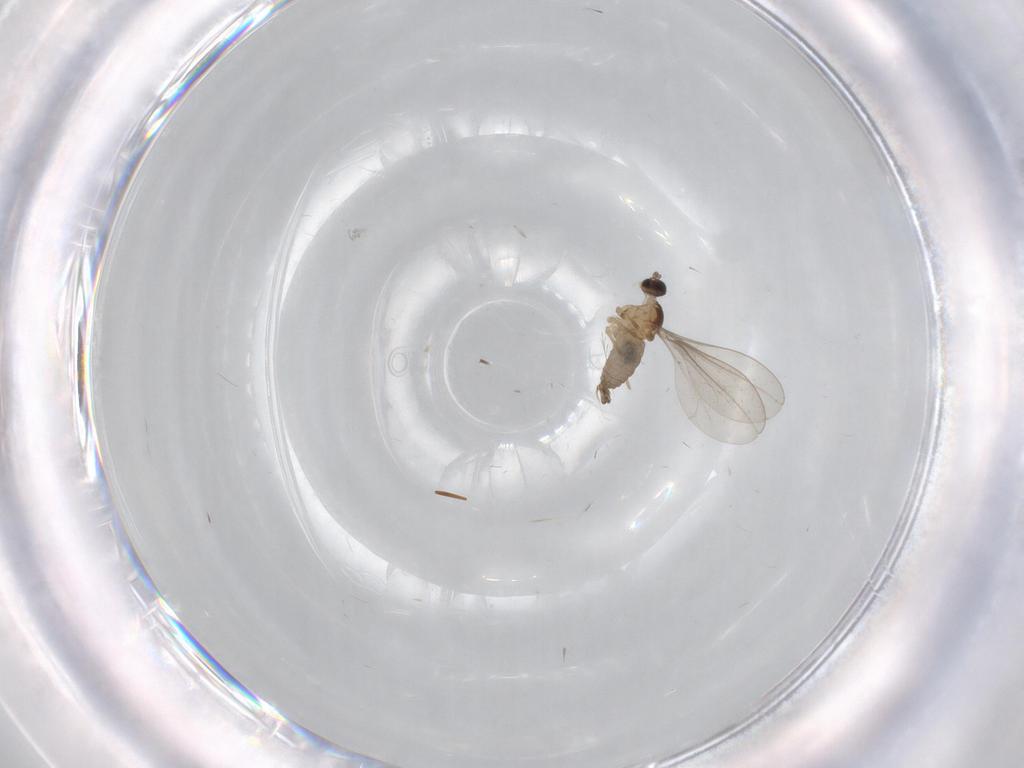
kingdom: Animalia
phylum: Arthropoda
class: Insecta
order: Diptera
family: Cecidomyiidae
